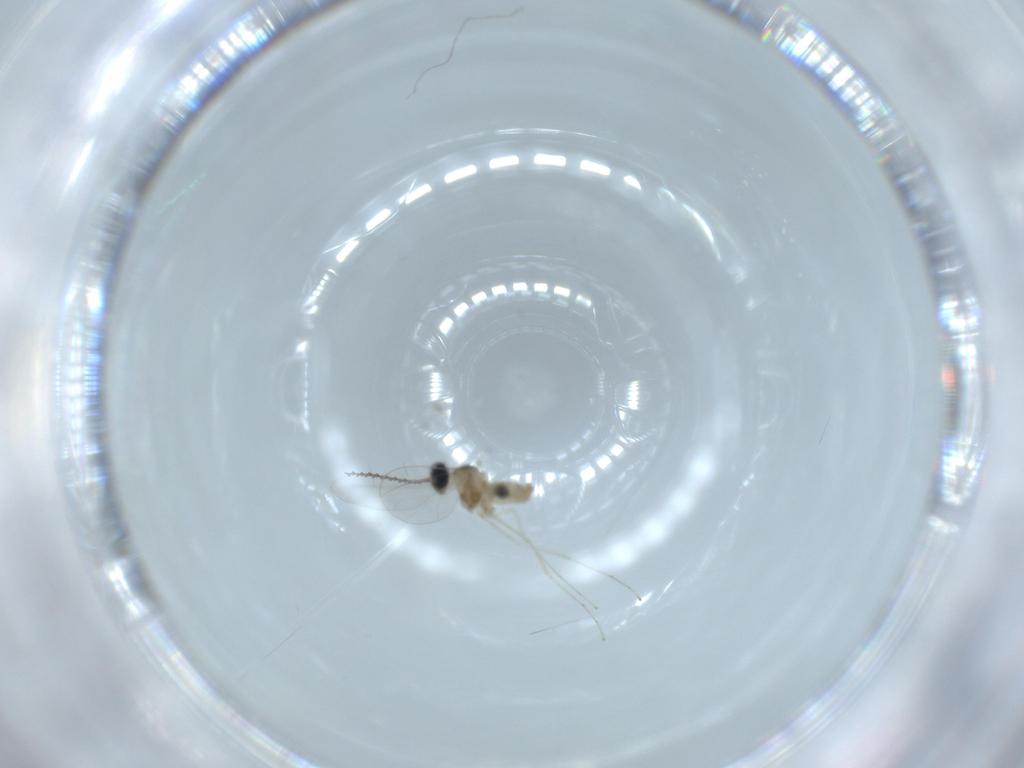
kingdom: Animalia
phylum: Arthropoda
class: Insecta
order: Diptera
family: Cecidomyiidae
